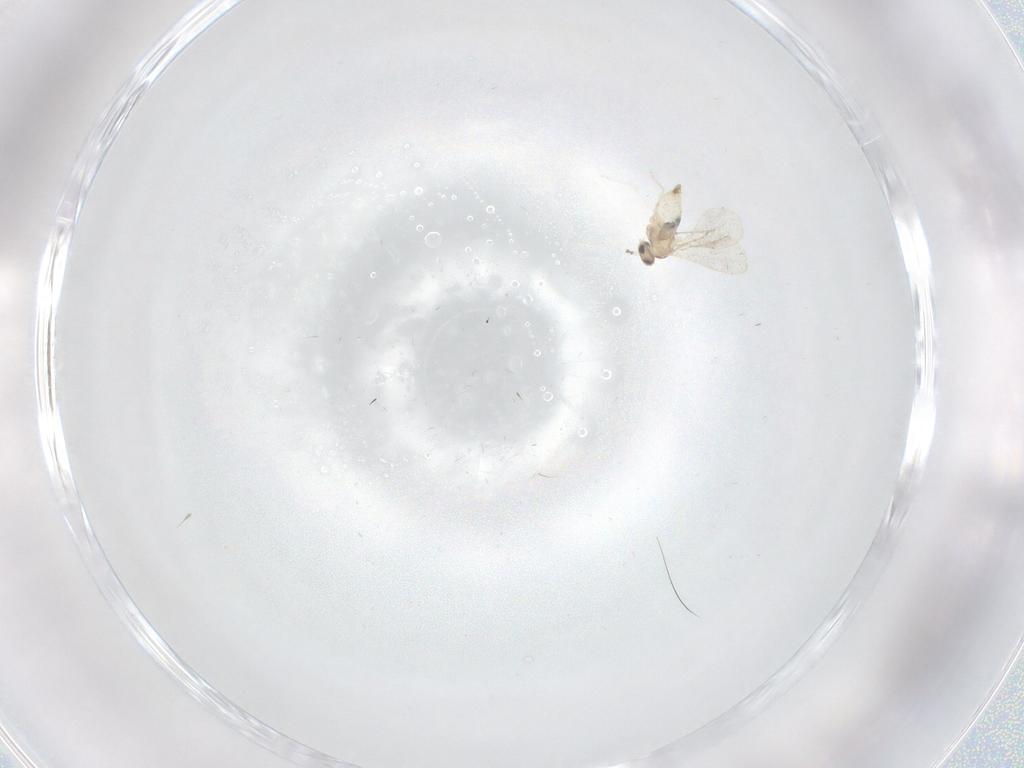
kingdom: Animalia
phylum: Arthropoda
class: Insecta
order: Diptera
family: Cecidomyiidae
